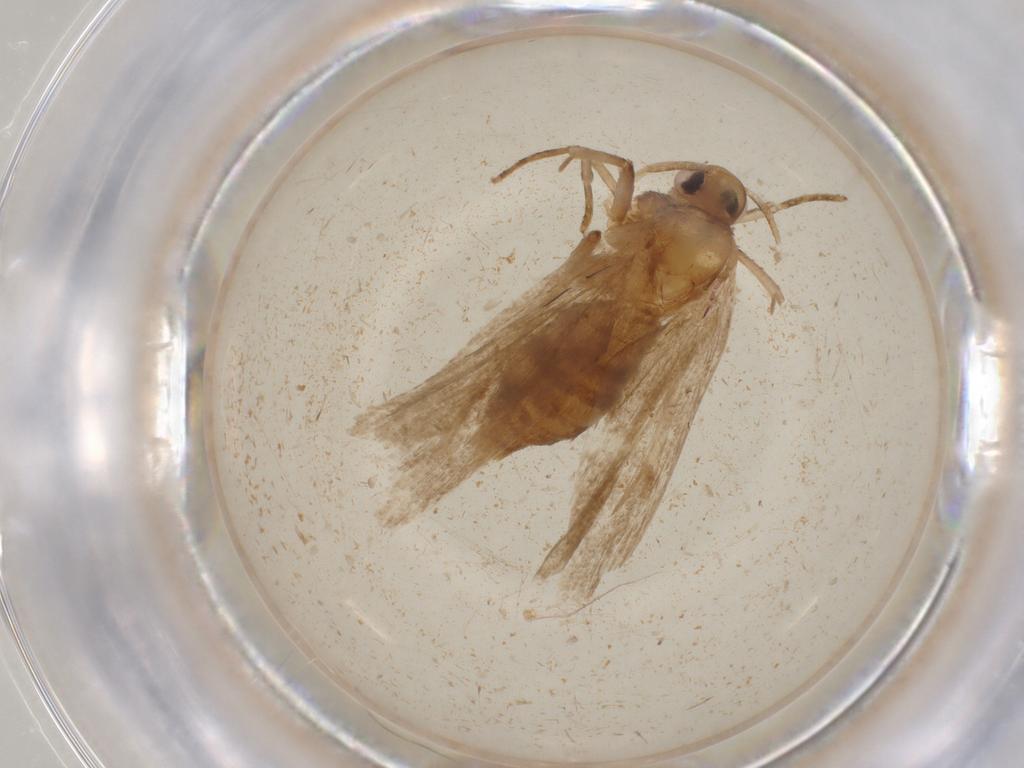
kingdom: Animalia
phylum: Arthropoda
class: Insecta
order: Lepidoptera
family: Oecophoridae
